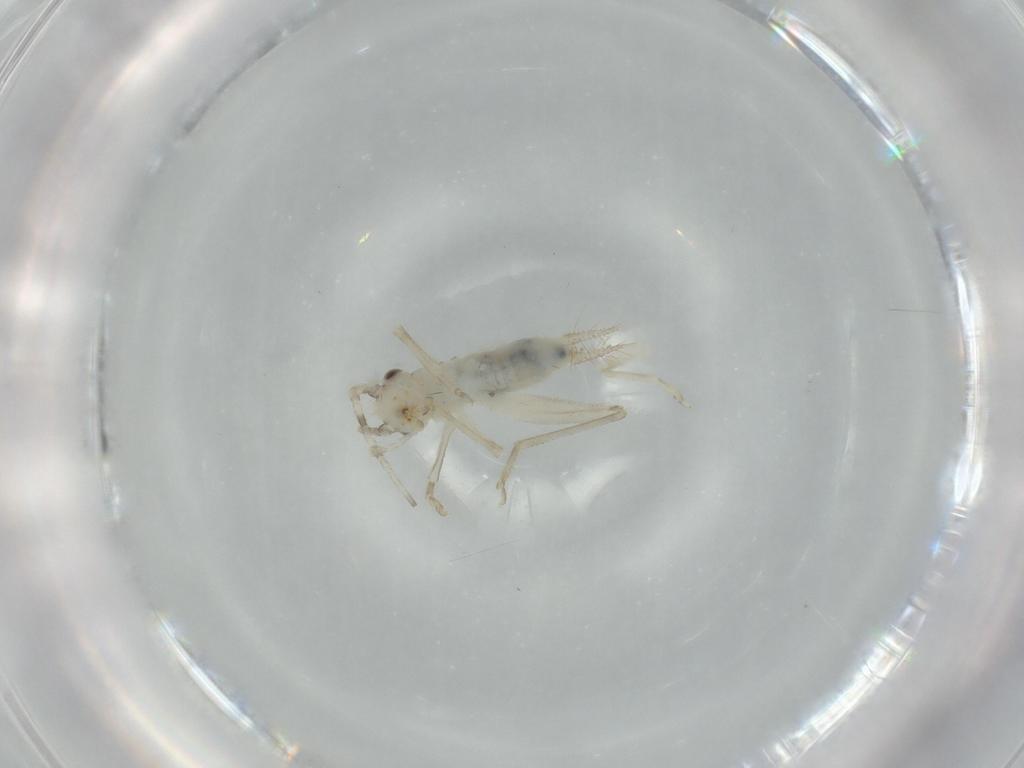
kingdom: Animalia
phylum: Arthropoda
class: Insecta
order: Orthoptera
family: Trigonidiidae
